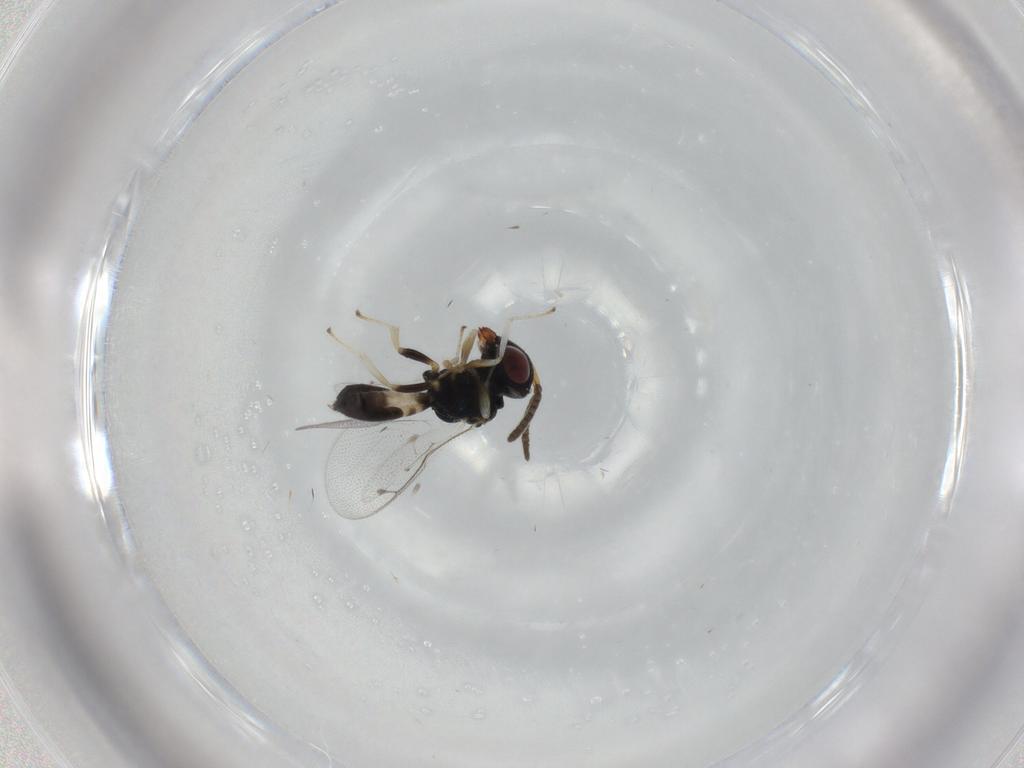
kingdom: Animalia
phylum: Arthropoda
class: Insecta
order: Hymenoptera
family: Pteromalidae
